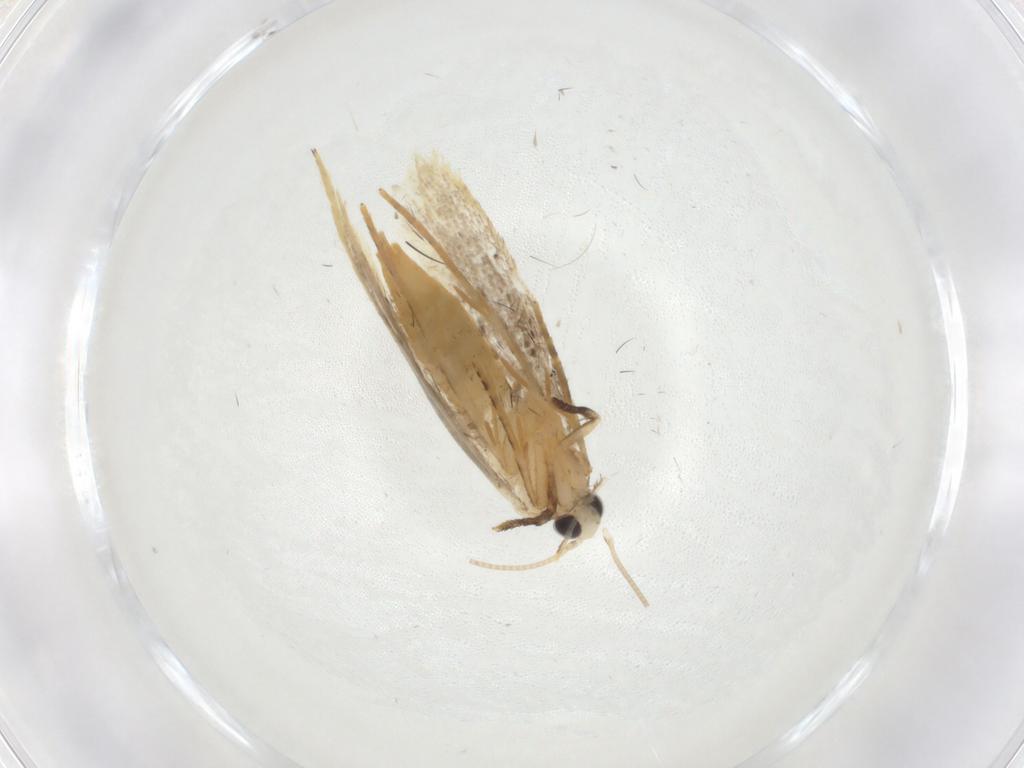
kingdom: Animalia
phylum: Arthropoda
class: Insecta
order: Lepidoptera
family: Tineidae
